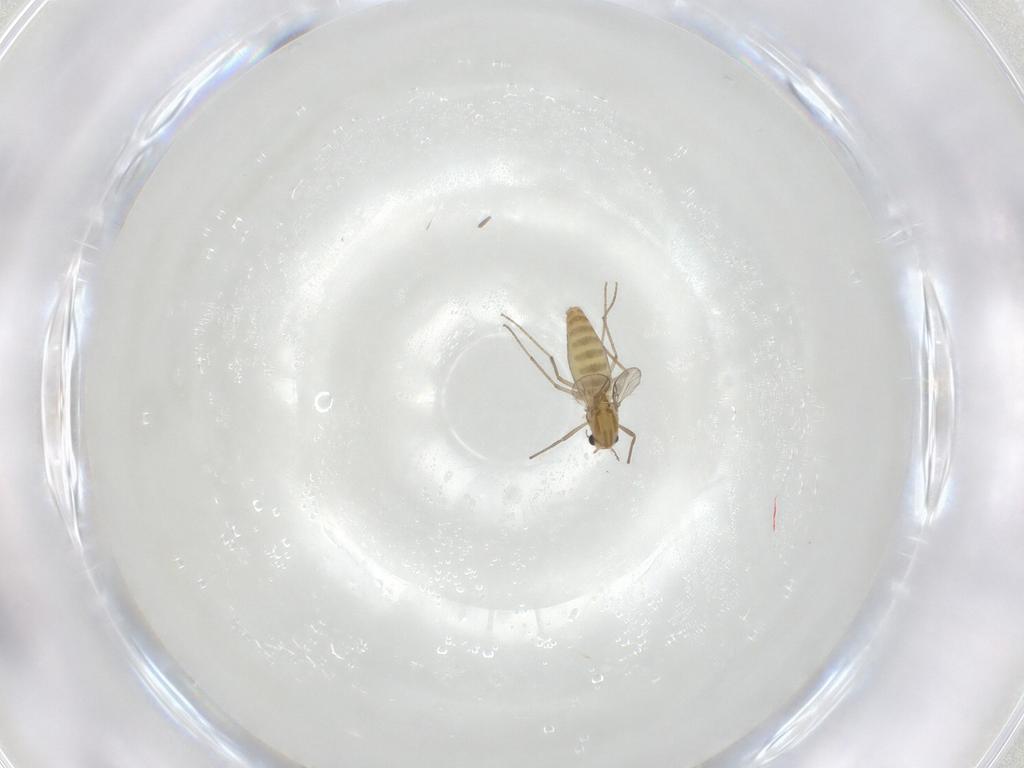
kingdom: Animalia
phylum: Arthropoda
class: Insecta
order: Diptera
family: Chironomidae
